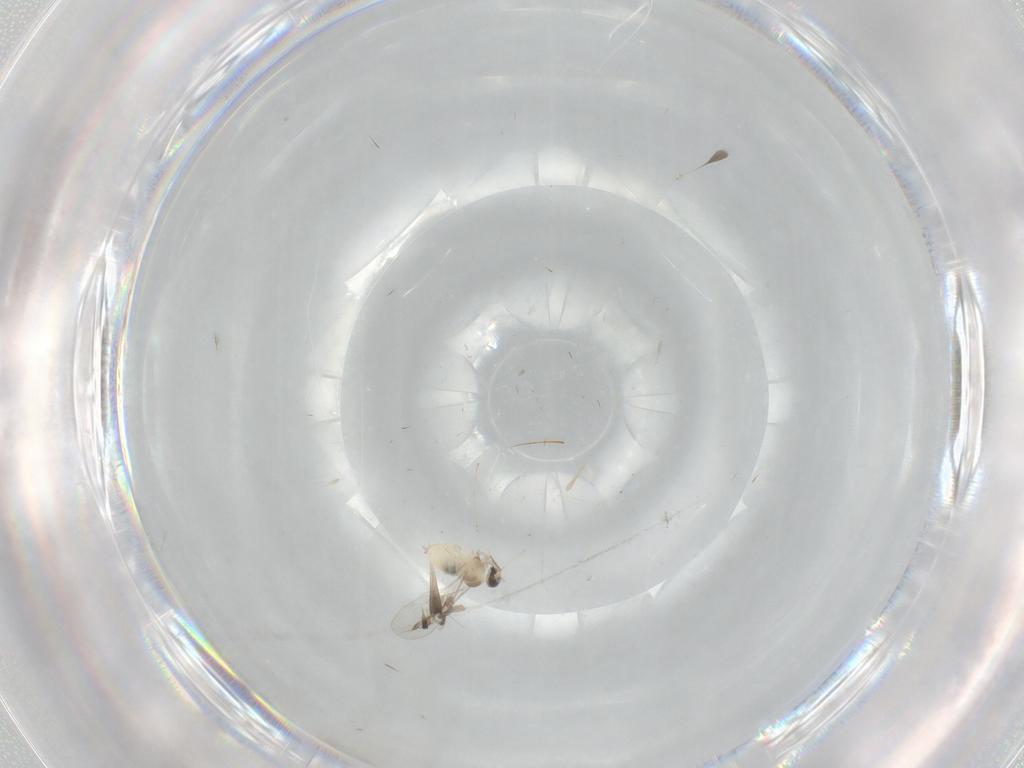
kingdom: Animalia
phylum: Arthropoda
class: Insecta
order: Diptera
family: Cecidomyiidae
